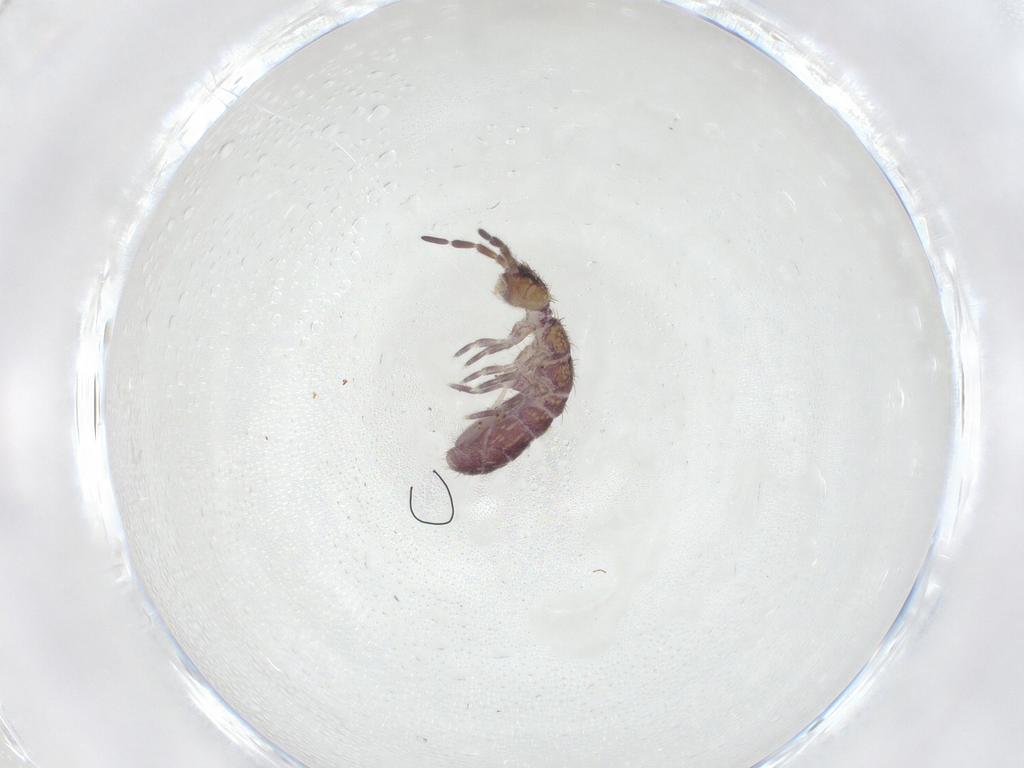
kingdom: Animalia
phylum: Arthropoda
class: Collembola
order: Entomobryomorpha
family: Isotomidae
